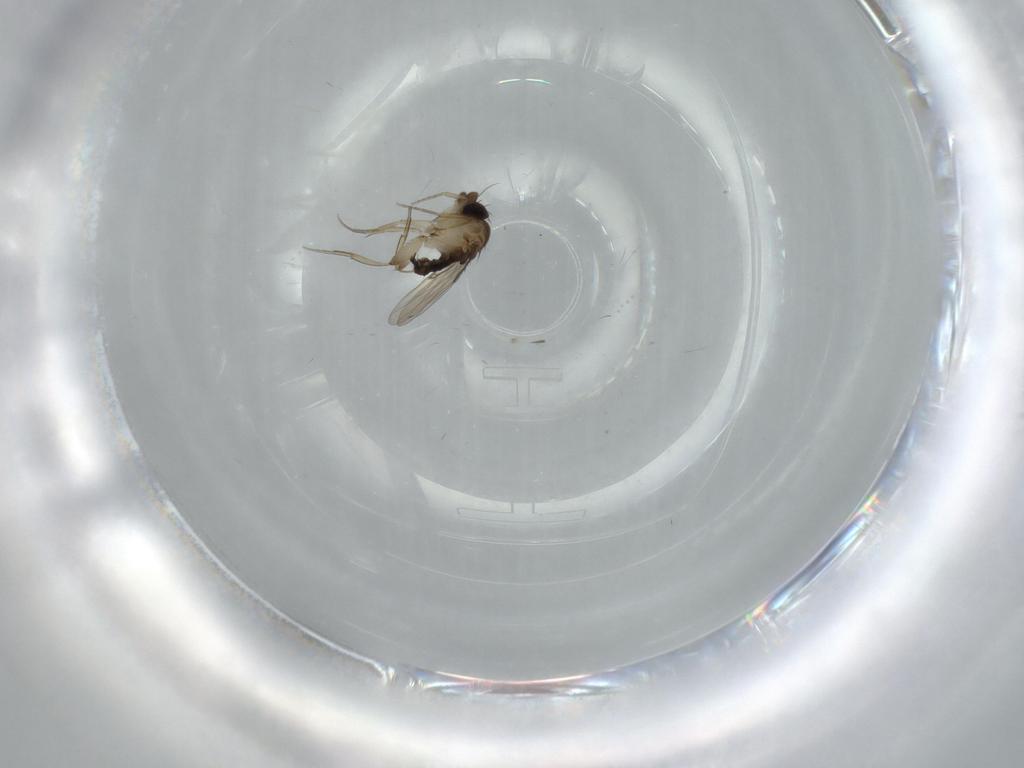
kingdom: Animalia
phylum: Arthropoda
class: Insecta
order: Diptera
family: Phoridae
